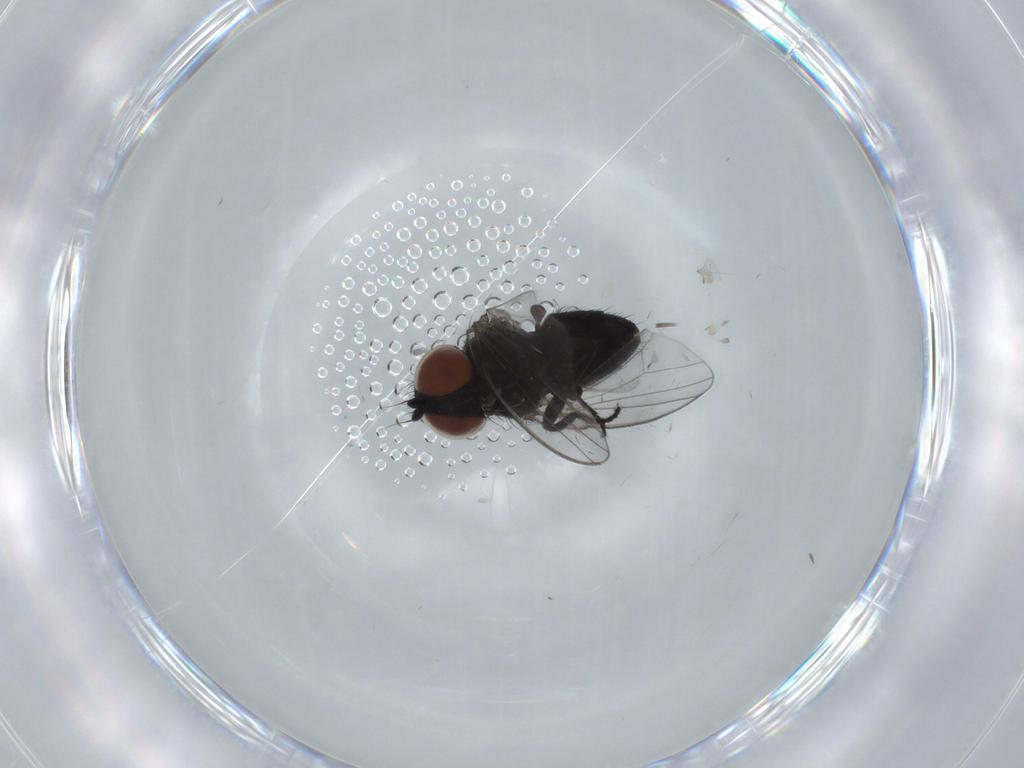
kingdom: Animalia
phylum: Arthropoda
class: Insecta
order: Diptera
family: Milichiidae
